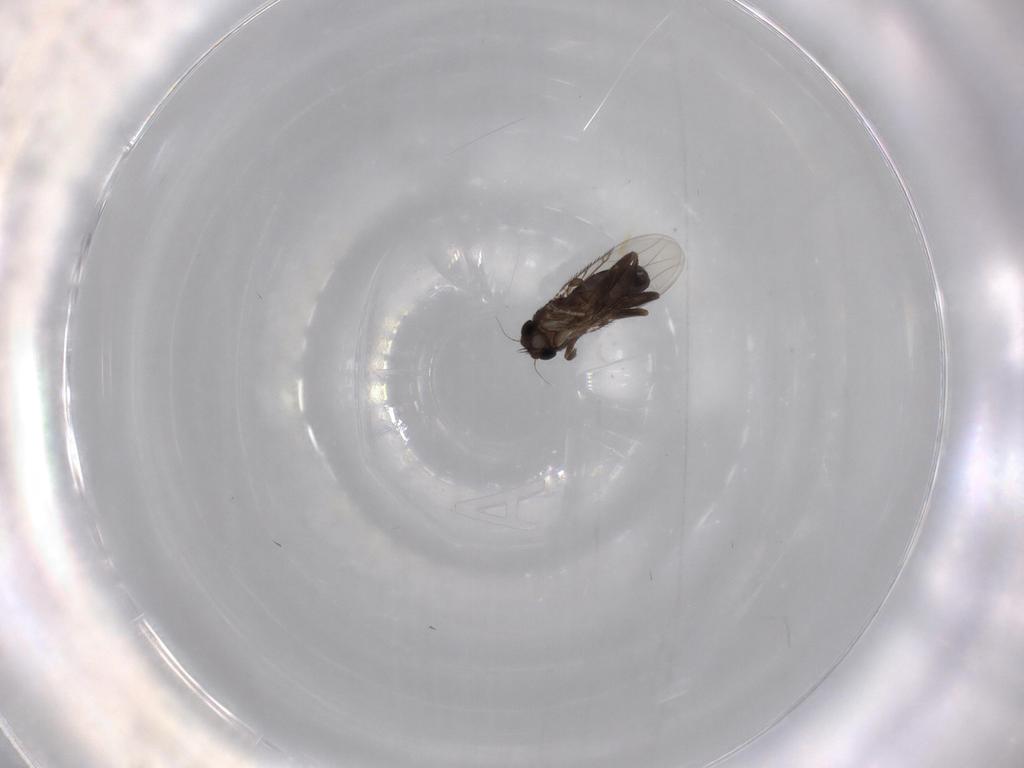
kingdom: Animalia
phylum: Arthropoda
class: Insecta
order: Diptera
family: Phoridae
